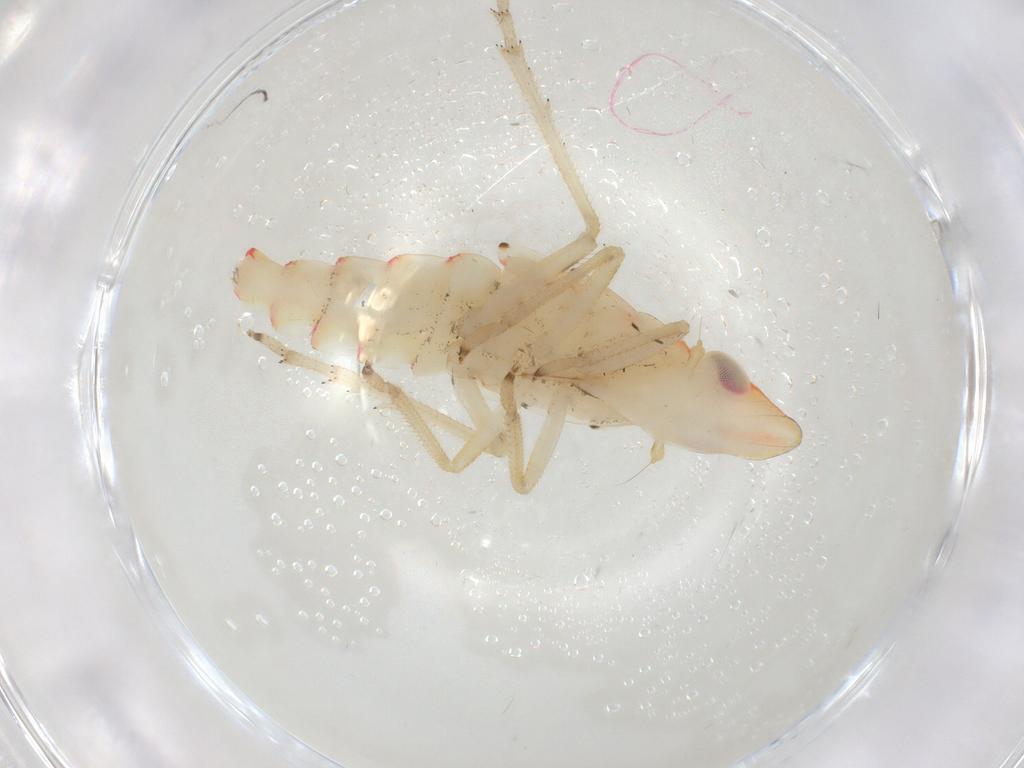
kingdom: Animalia
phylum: Arthropoda
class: Insecta
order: Hemiptera
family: Tropiduchidae
